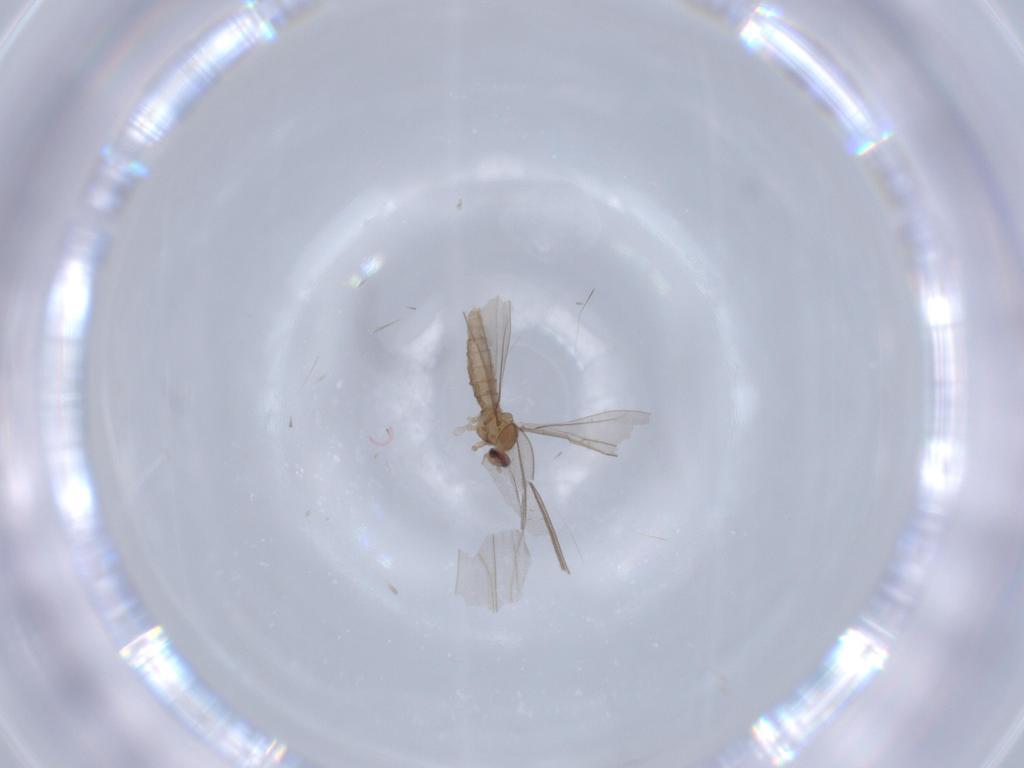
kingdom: Animalia
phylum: Arthropoda
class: Insecta
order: Diptera
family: Cecidomyiidae
